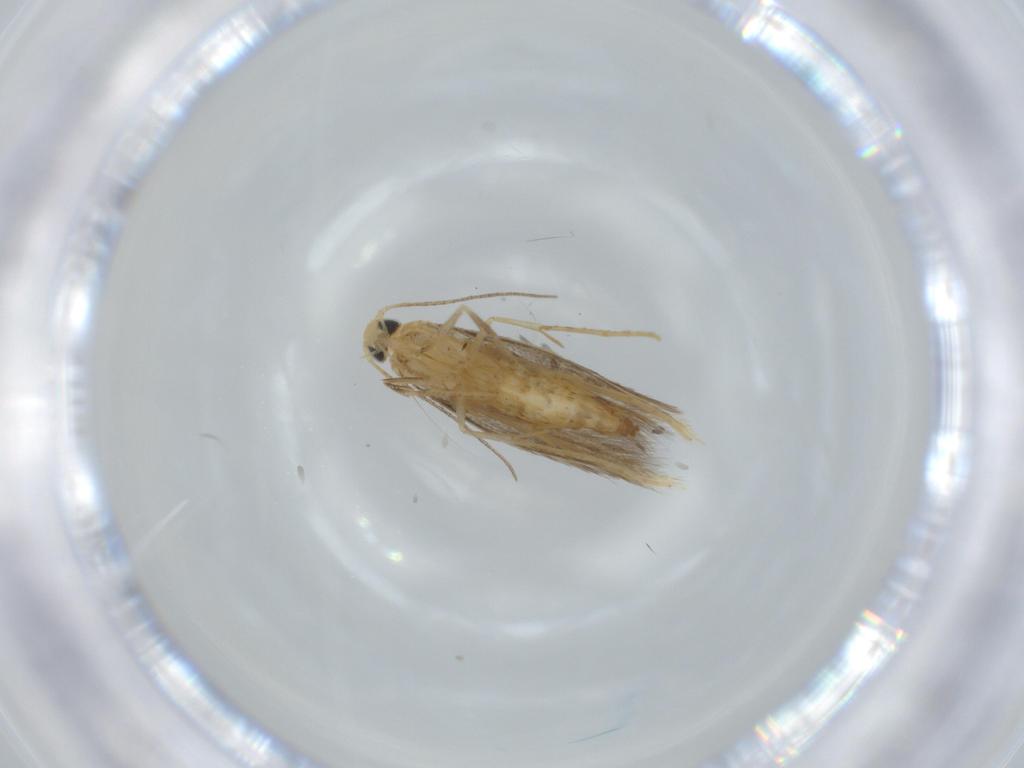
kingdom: Animalia
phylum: Arthropoda
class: Insecta
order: Lepidoptera
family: Tischeriidae
